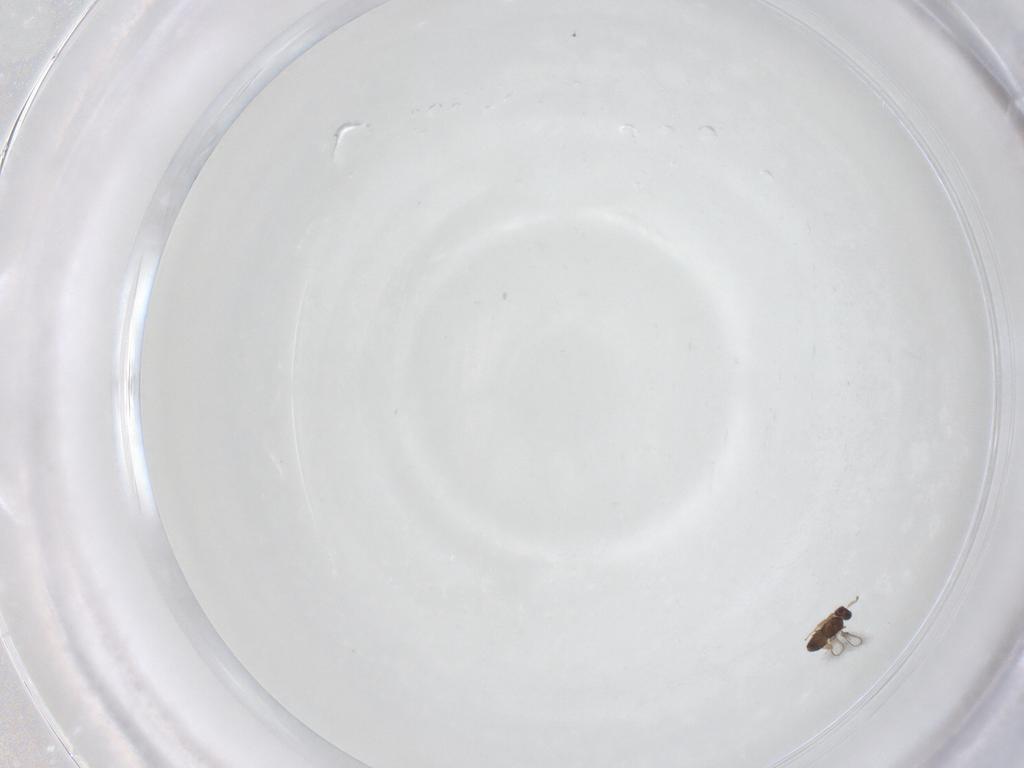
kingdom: Animalia
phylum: Arthropoda
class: Insecta
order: Hymenoptera
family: Mymaridae
